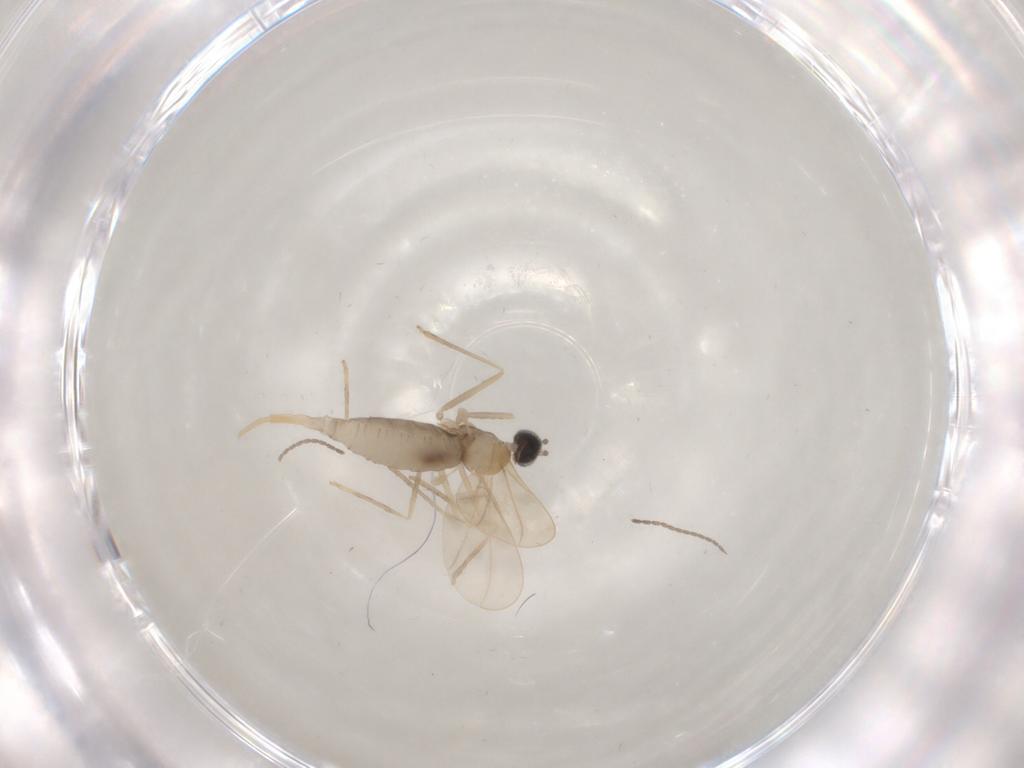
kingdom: Animalia
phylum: Arthropoda
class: Insecta
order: Diptera
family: Cecidomyiidae
